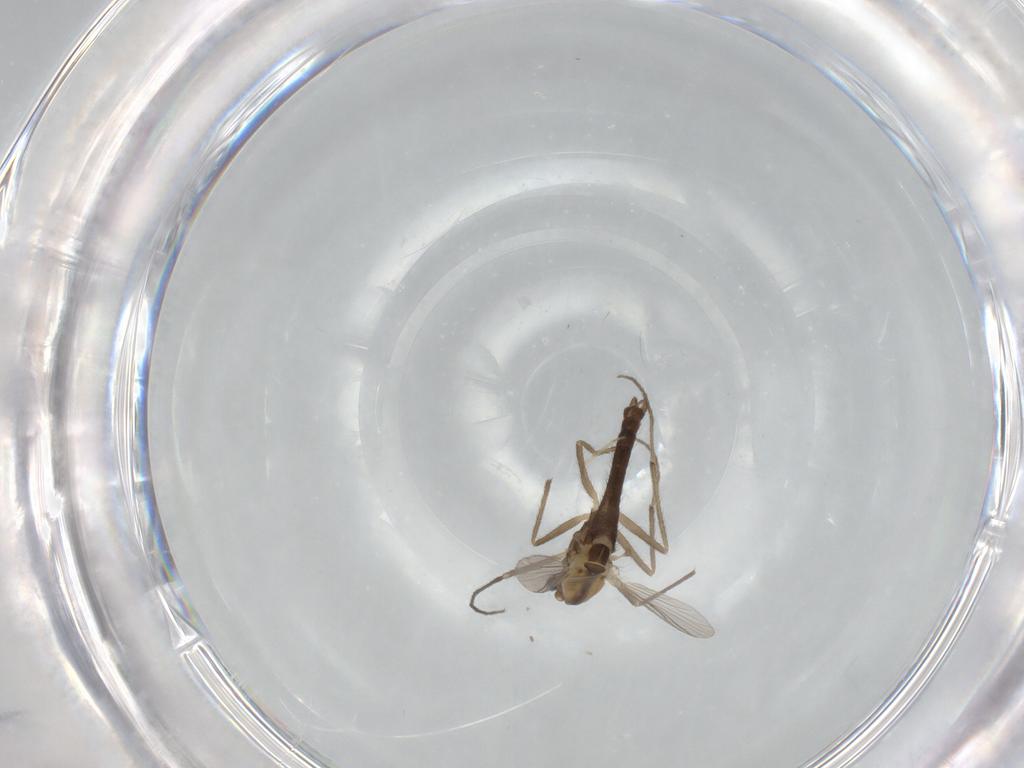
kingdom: Animalia
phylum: Arthropoda
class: Insecta
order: Diptera
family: Chironomidae
